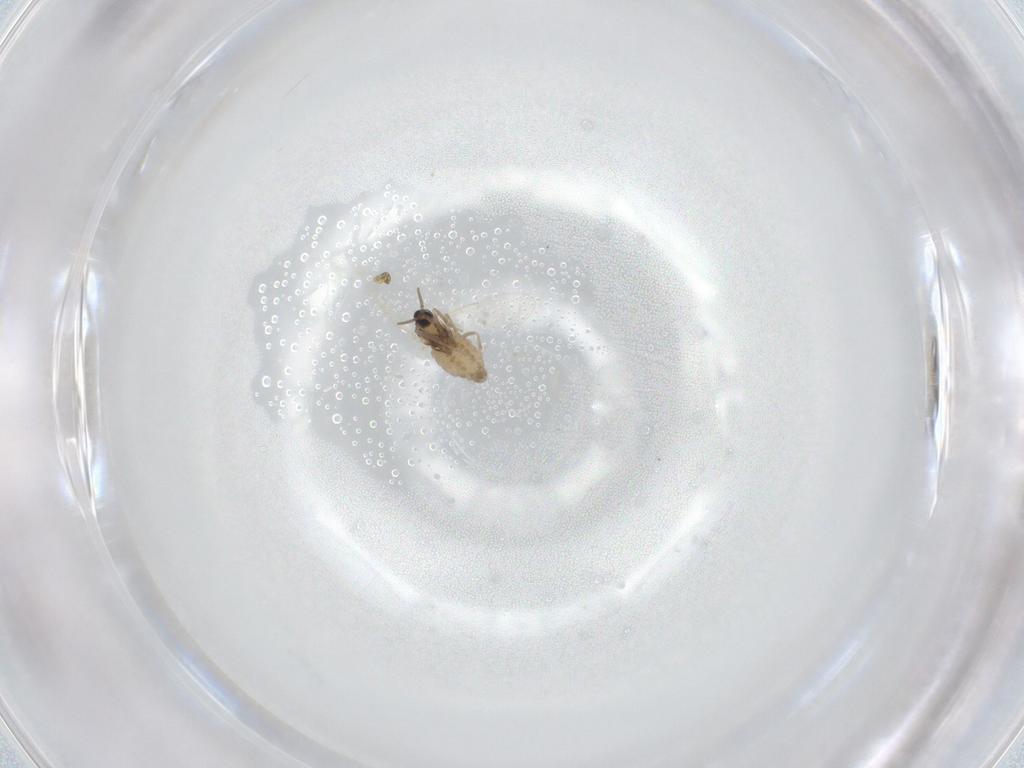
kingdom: Animalia
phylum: Arthropoda
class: Insecta
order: Diptera
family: Cecidomyiidae
